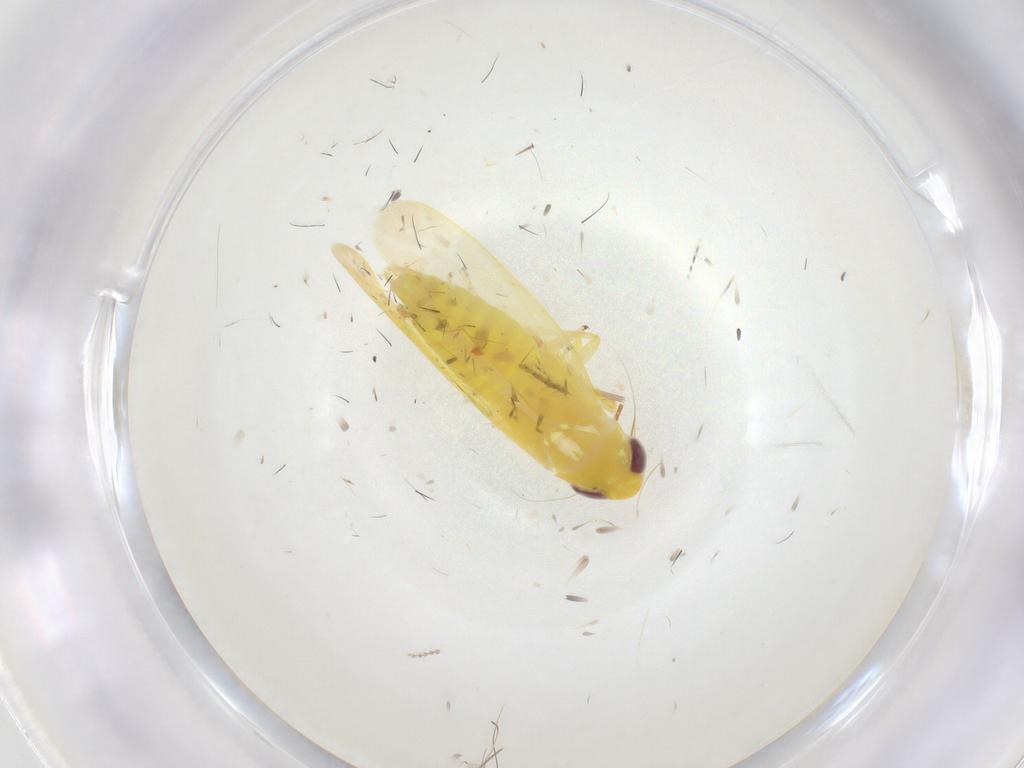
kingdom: Animalia
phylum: Arthropoda
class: Insecta
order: Hemiptera
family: Cicadellidae
